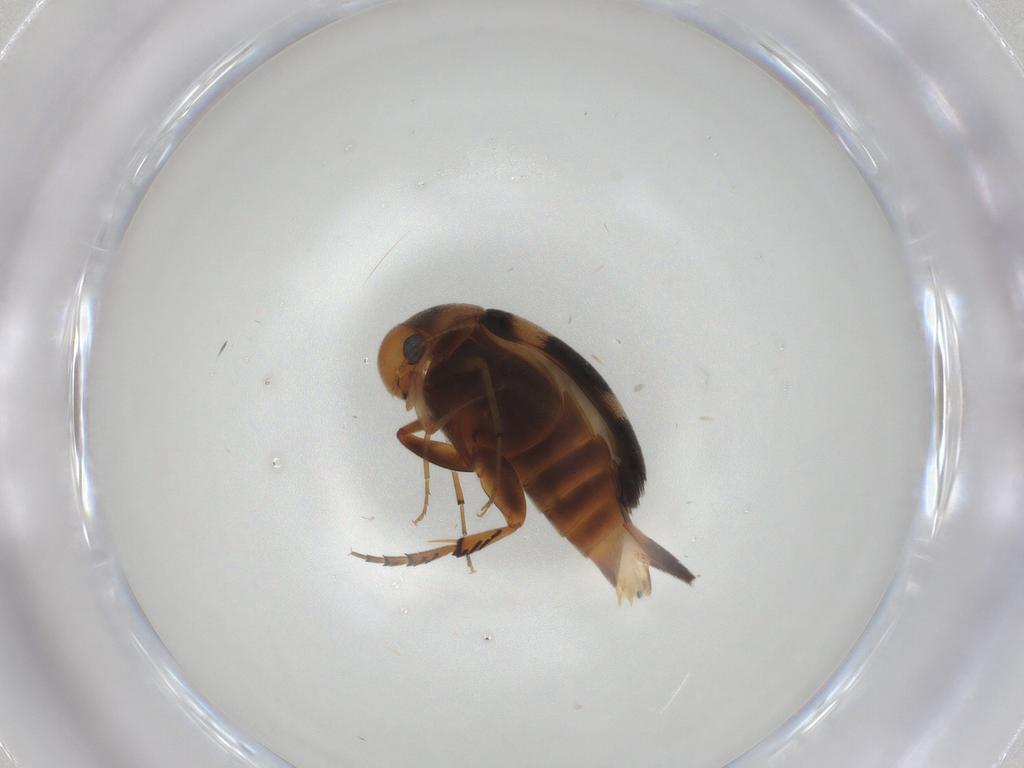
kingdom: Animalia
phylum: Arthropoda
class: Insecta
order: Coleoptera
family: Mordellidae
